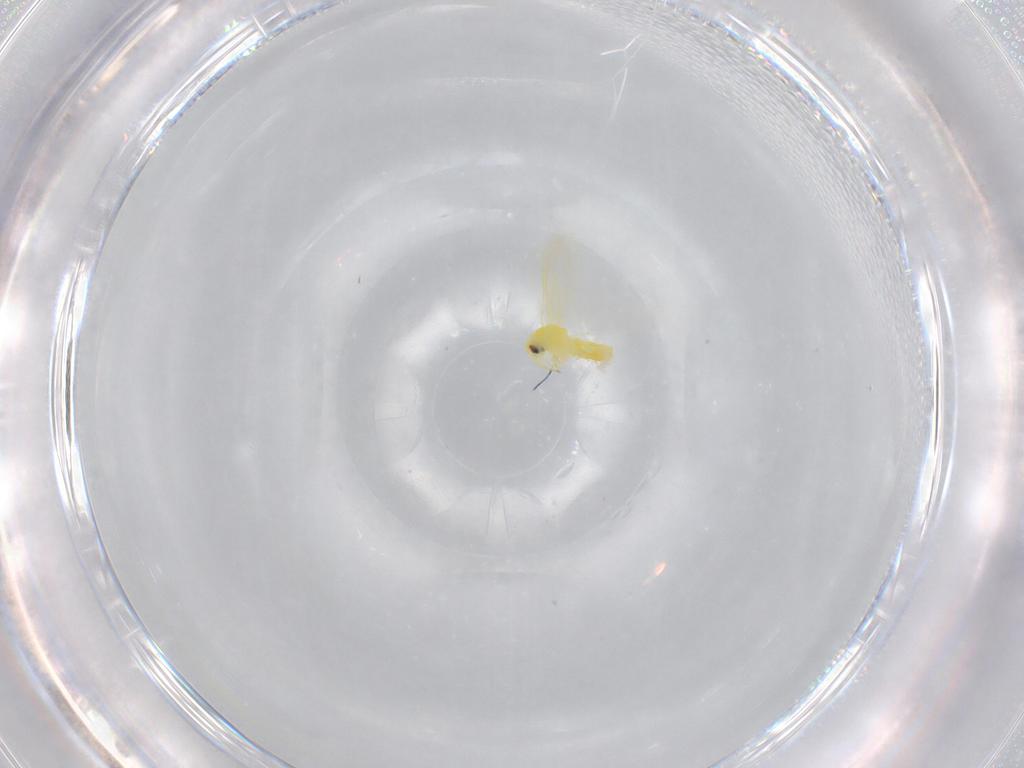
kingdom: Animalia
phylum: Arthropoda
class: Insecta
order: Hemiptera
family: Aleyrodidae
